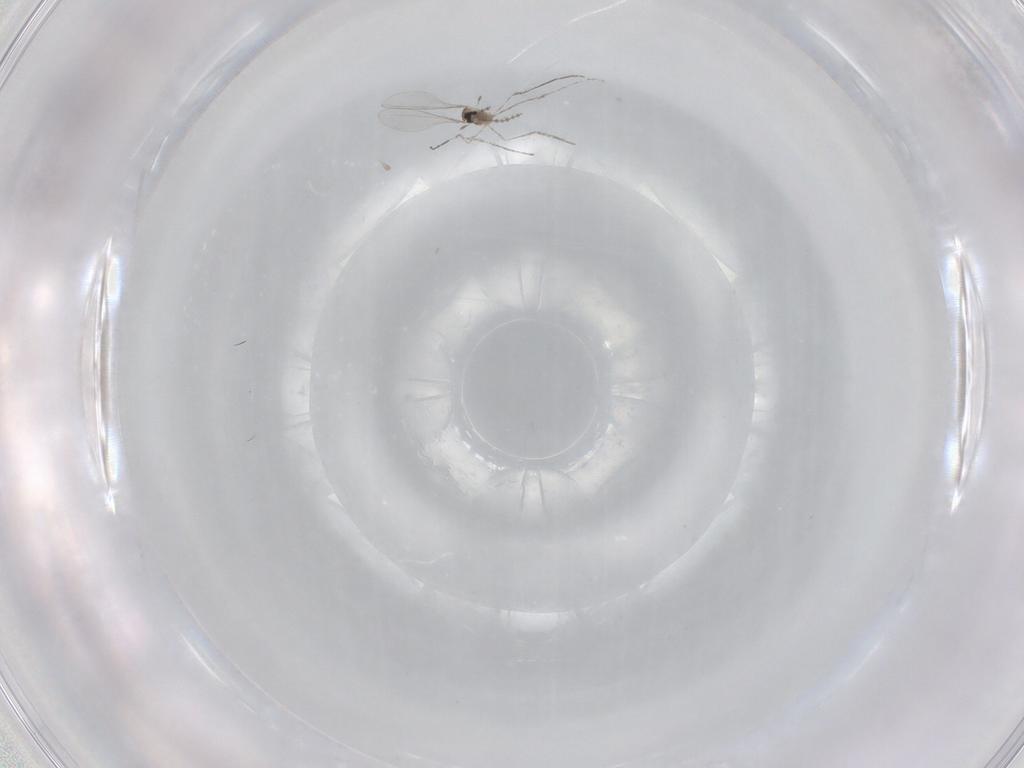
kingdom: Animalia
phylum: Arthropoda
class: Insecta
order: Diptera
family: Cecidomyiidae
